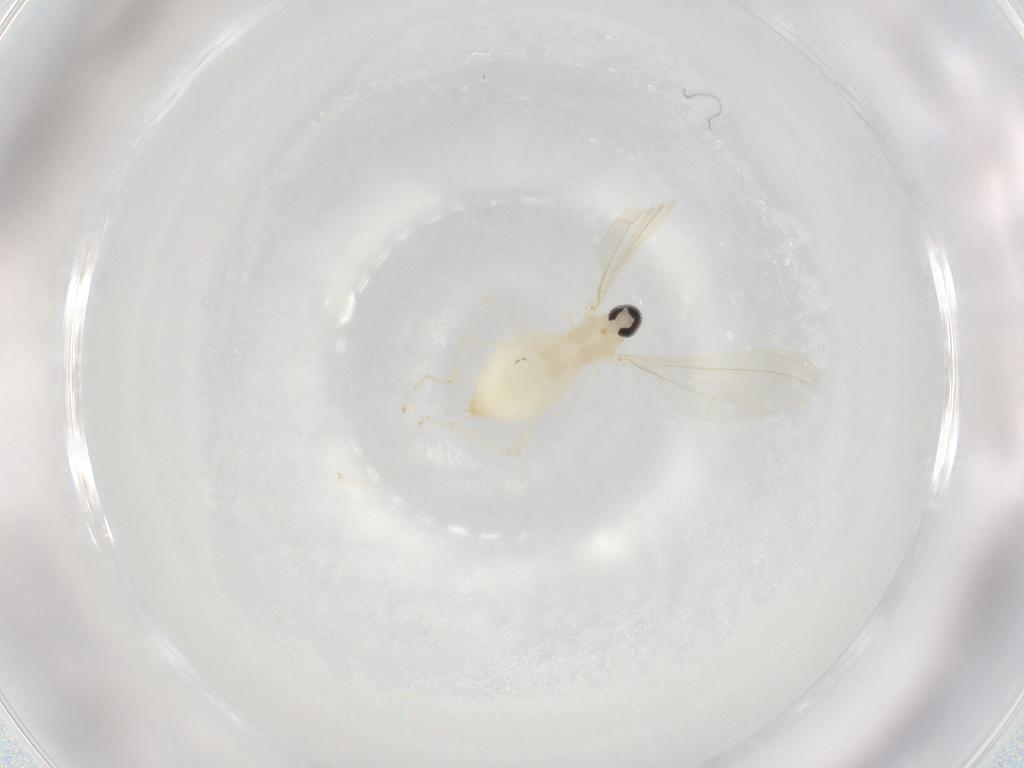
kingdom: Animalia
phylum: Arthropoda
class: Insecta
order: Diptera
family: Cecidomyiidae
